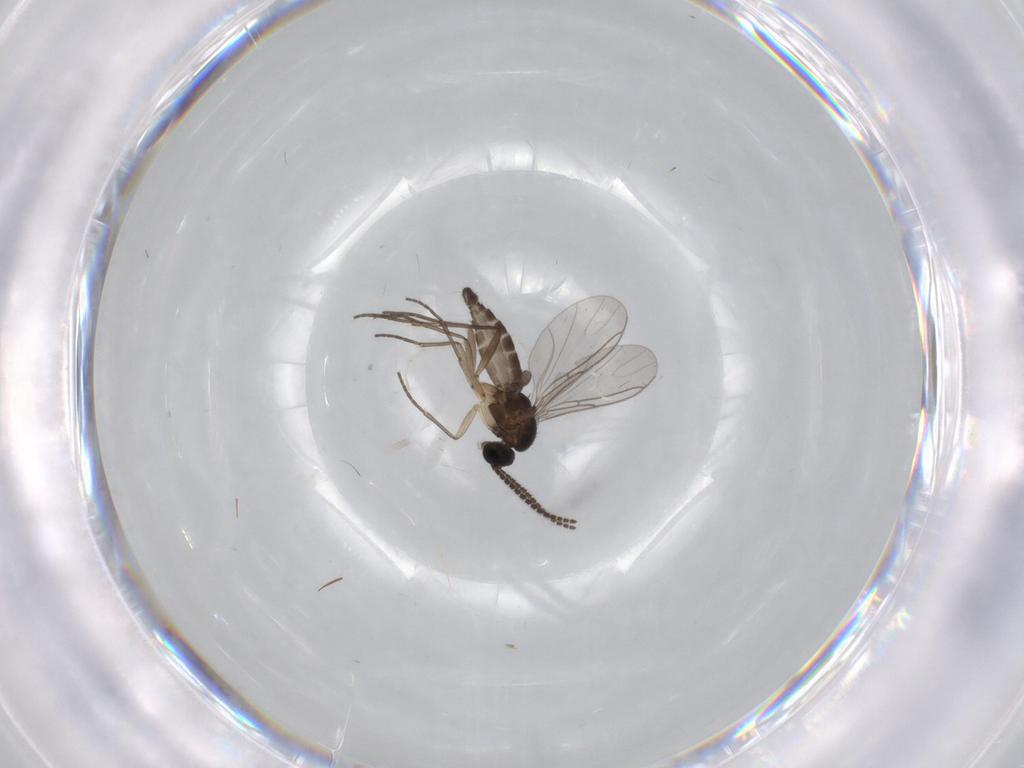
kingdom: Animalia
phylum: Arthropoda
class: Insecta
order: Diptera
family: Sciaridae
